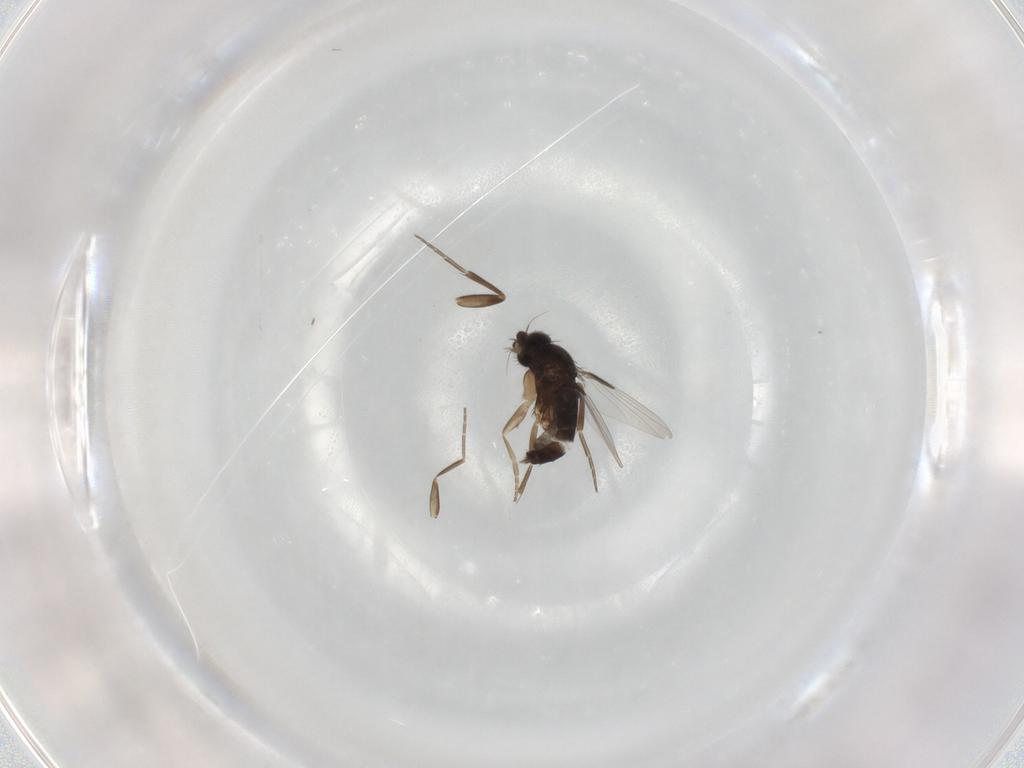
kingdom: Animalia
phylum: Arthropoda
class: Insecta
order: Diptera
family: Phoridae
